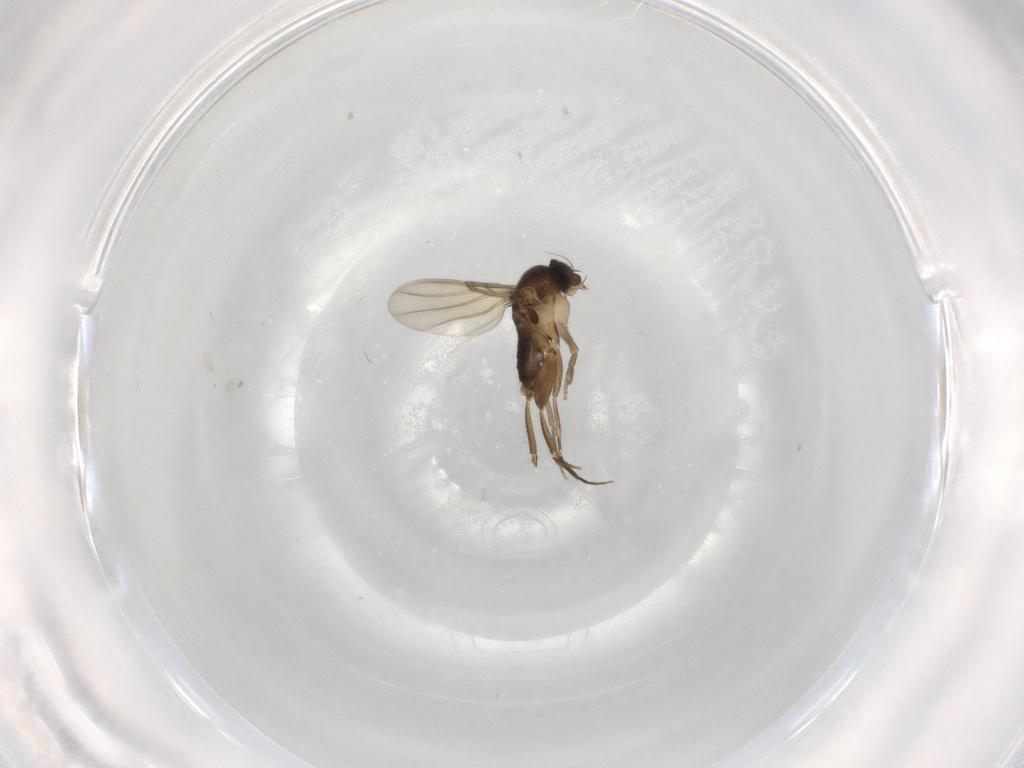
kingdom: Animalia
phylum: Arthropoda
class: Insecta
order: Diptera
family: Phoridae
